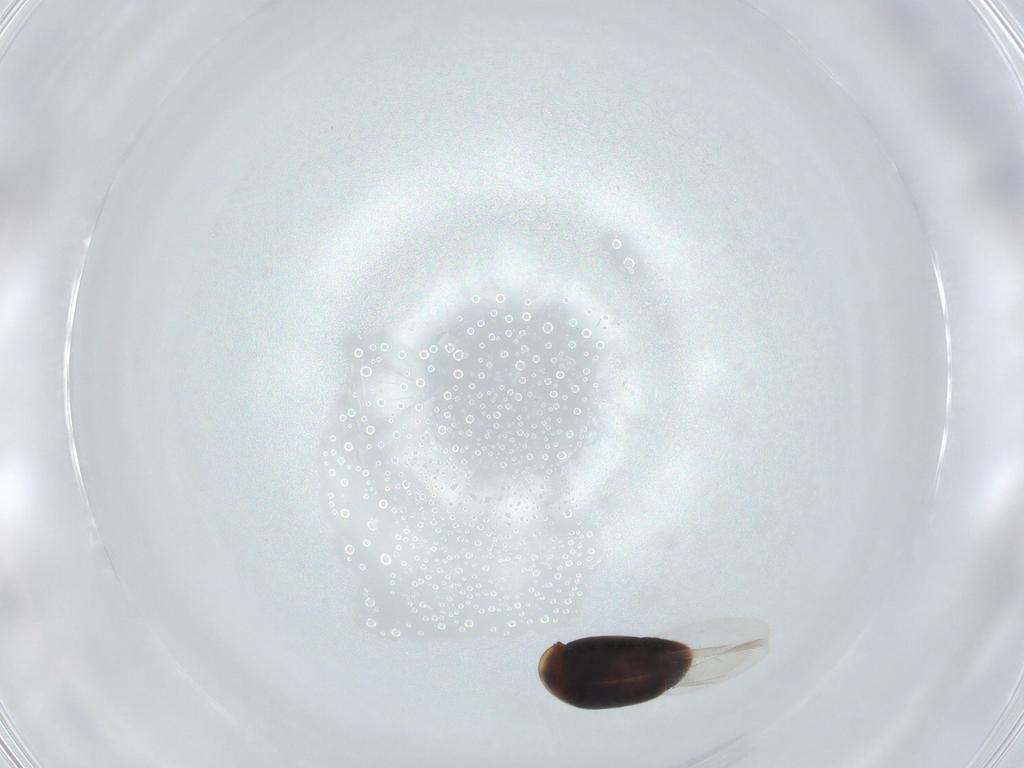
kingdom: Animalia
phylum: Arthropoda
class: Insecta
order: Coleoptera
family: Corylophidae
